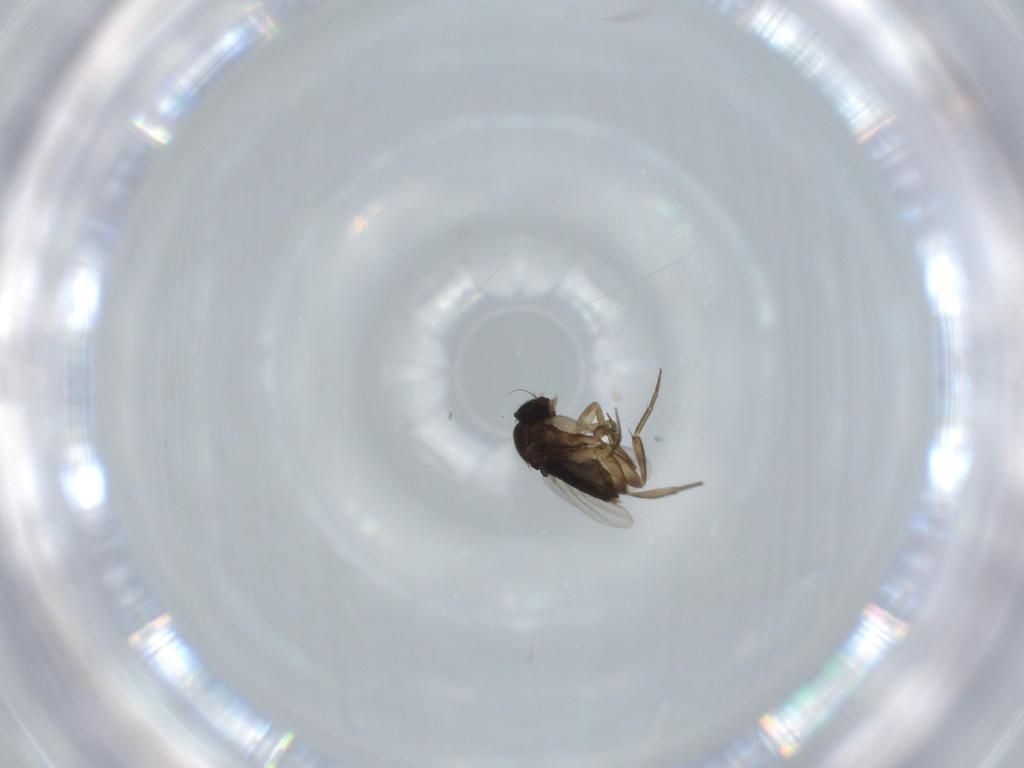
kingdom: Animalia
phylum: Arthropoda
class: Insecta
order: Diptera
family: Phoridae
